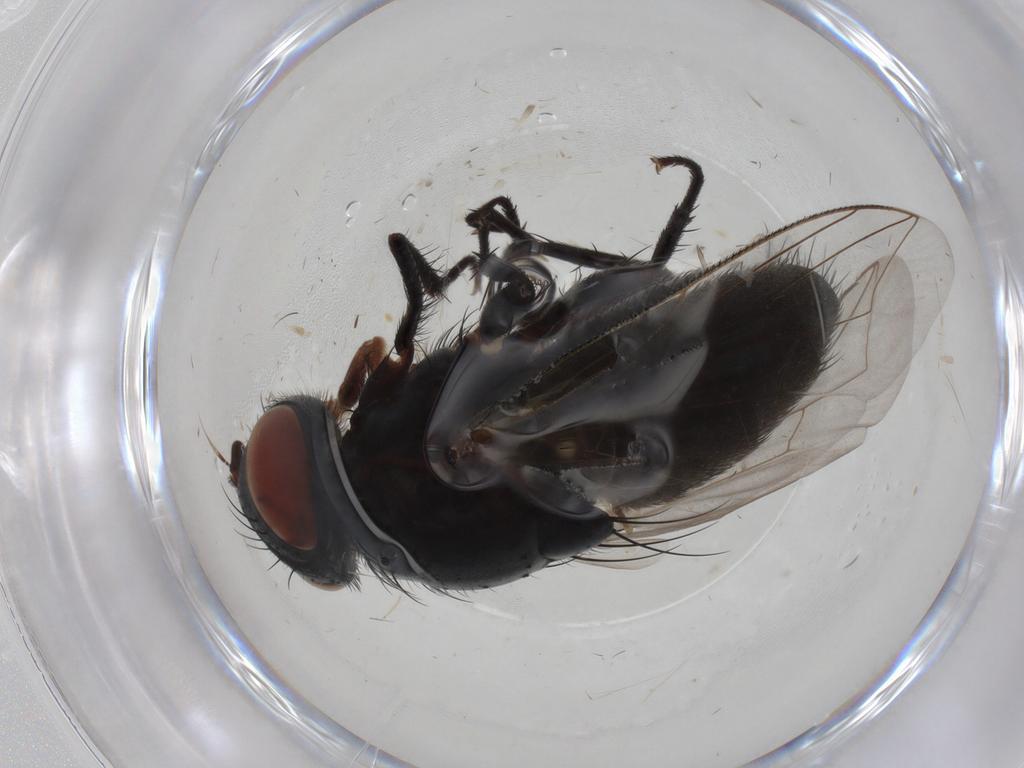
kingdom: Animalia
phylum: Arthropoda
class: Insecta
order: Diptera
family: Sarcophagidae
